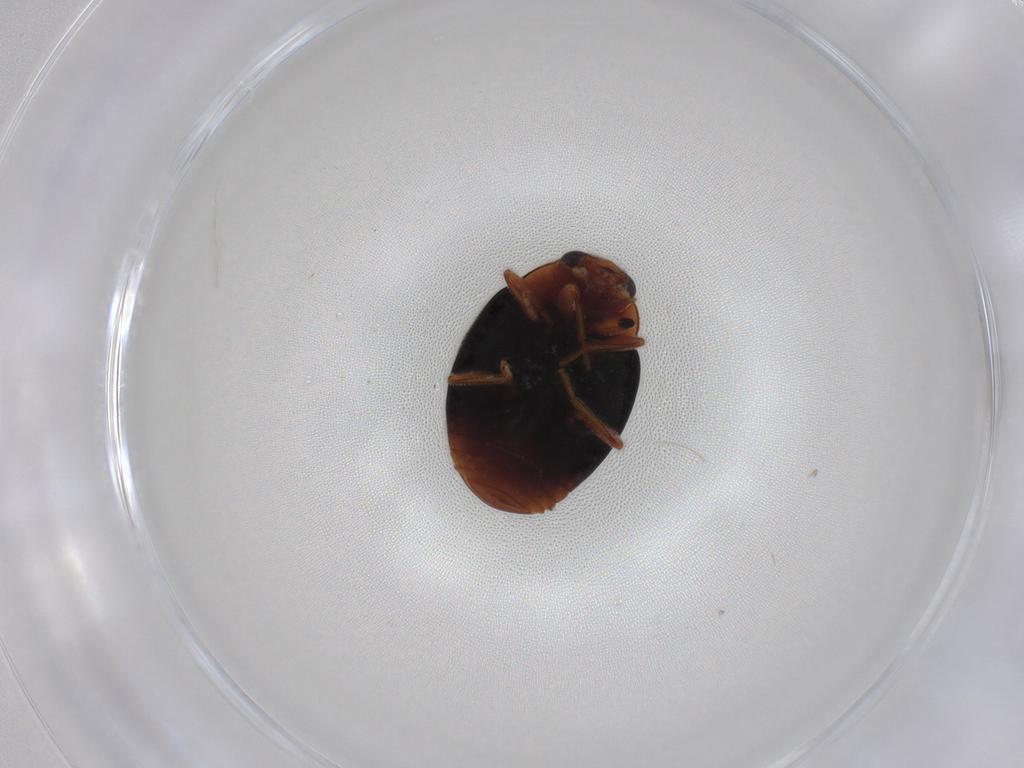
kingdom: Animalia
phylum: Arthropoda
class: Insecta
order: Coleoptera
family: Coccinellidae
